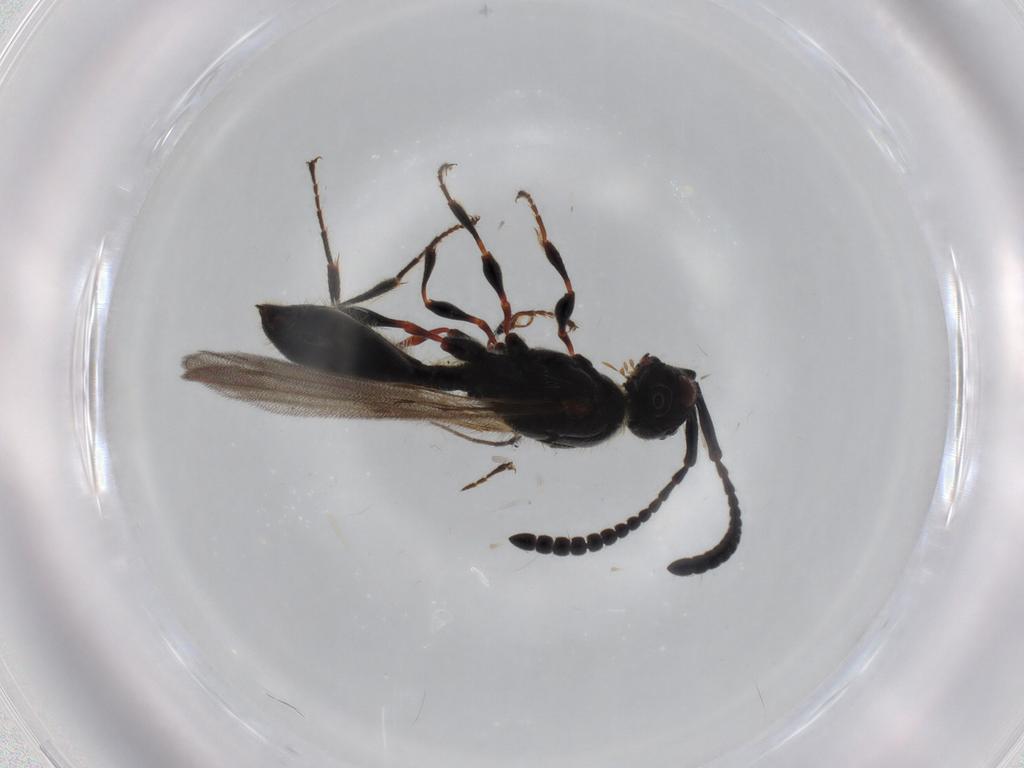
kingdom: Animalia
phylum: Arthropoda
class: Insecta
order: Hymenoptera
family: Diapriidae
